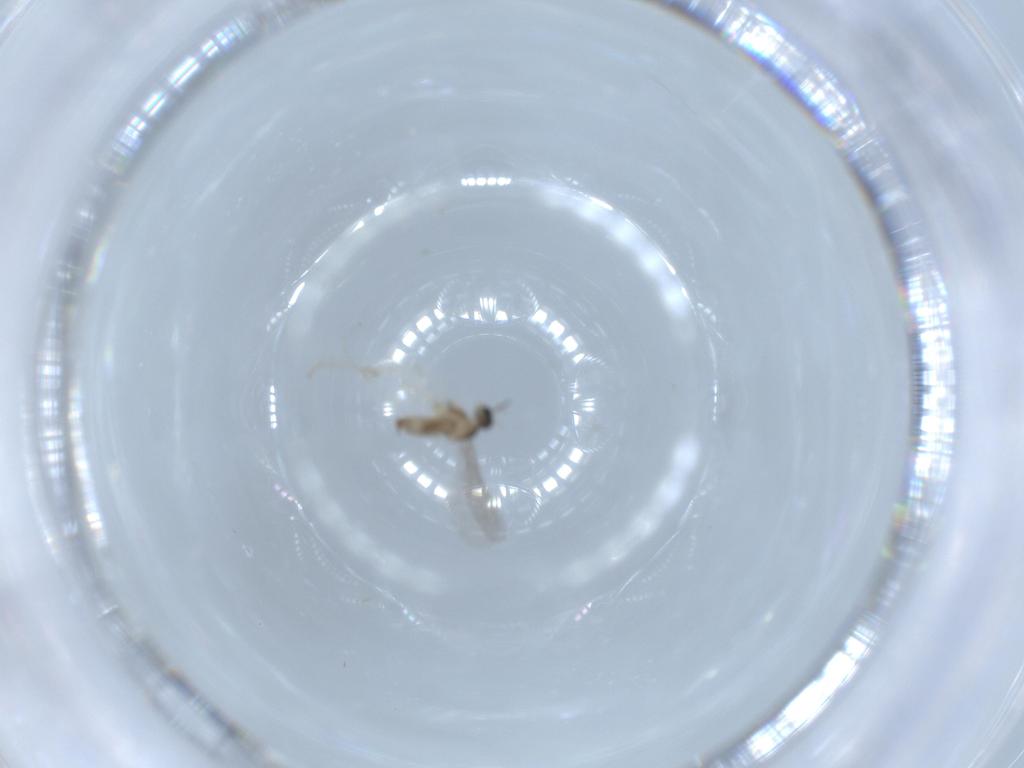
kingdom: Animalia
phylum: Arthropoda
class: Insecta
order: Diptera
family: Cecidomyiidae
